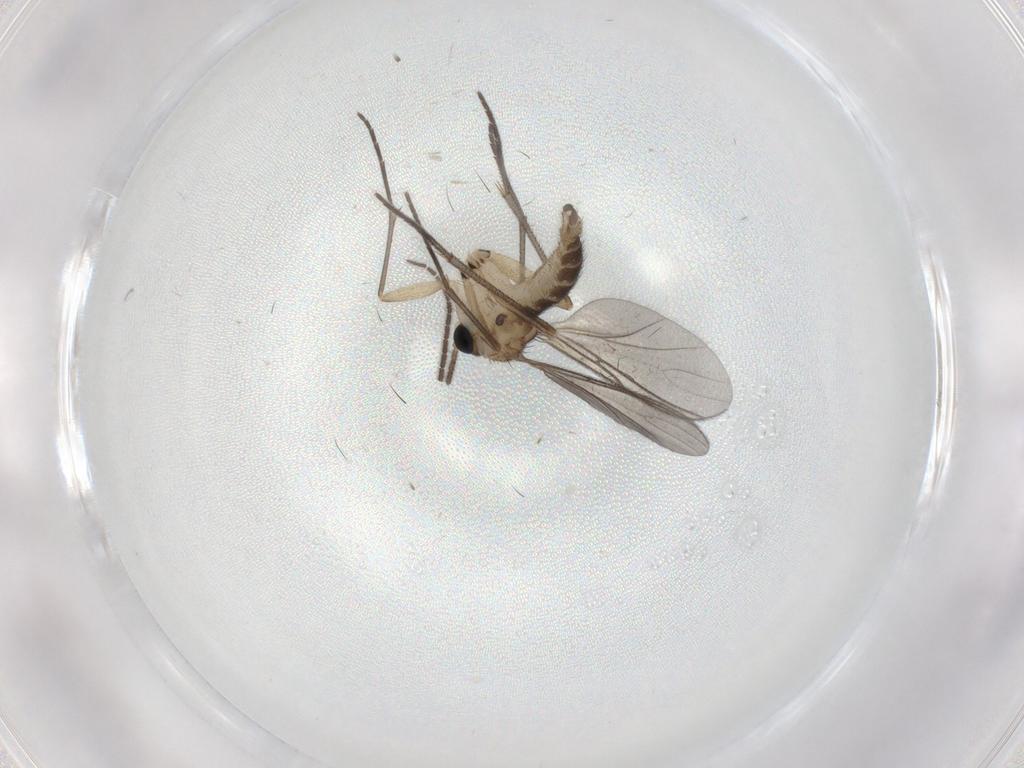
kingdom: Animalia
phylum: Arthropoda
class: Insecta
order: Diptera
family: Sciaridae
